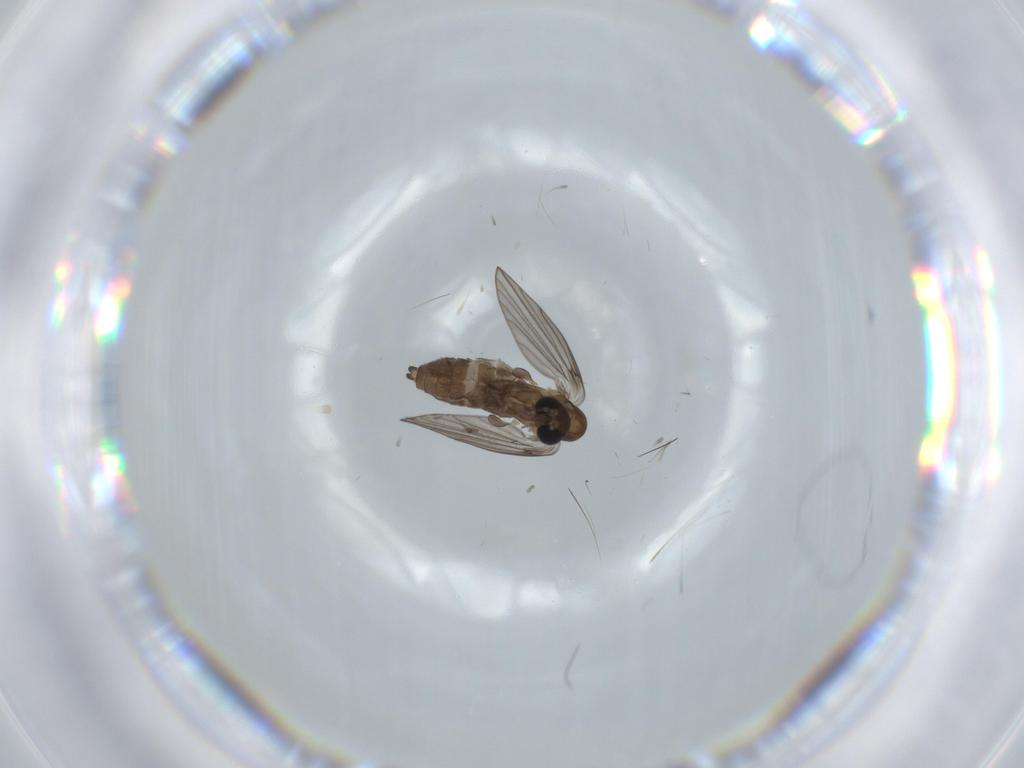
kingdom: Animalia
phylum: Arthropoda
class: Insecta
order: Diptera
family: Psychodidae
